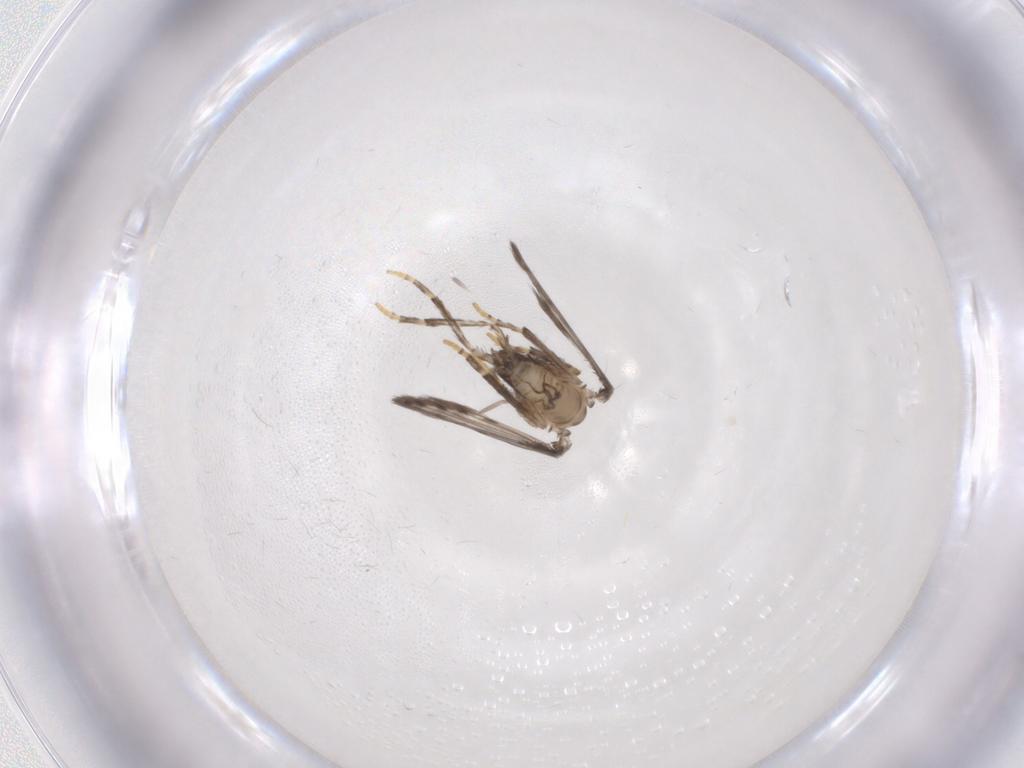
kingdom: Animalia
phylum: Arthropoda
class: Insecta
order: Diptera
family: Psychodidae
